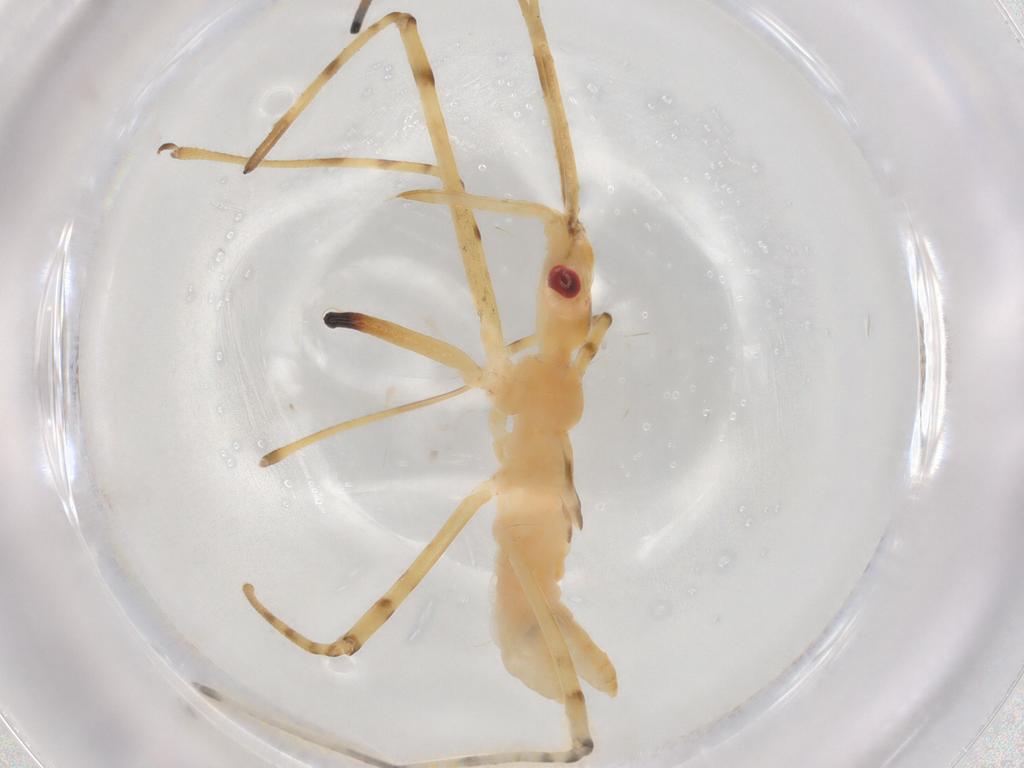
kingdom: Animalia
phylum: Arthropoda
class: Insecta
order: Hemiptera
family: Reduviidae
